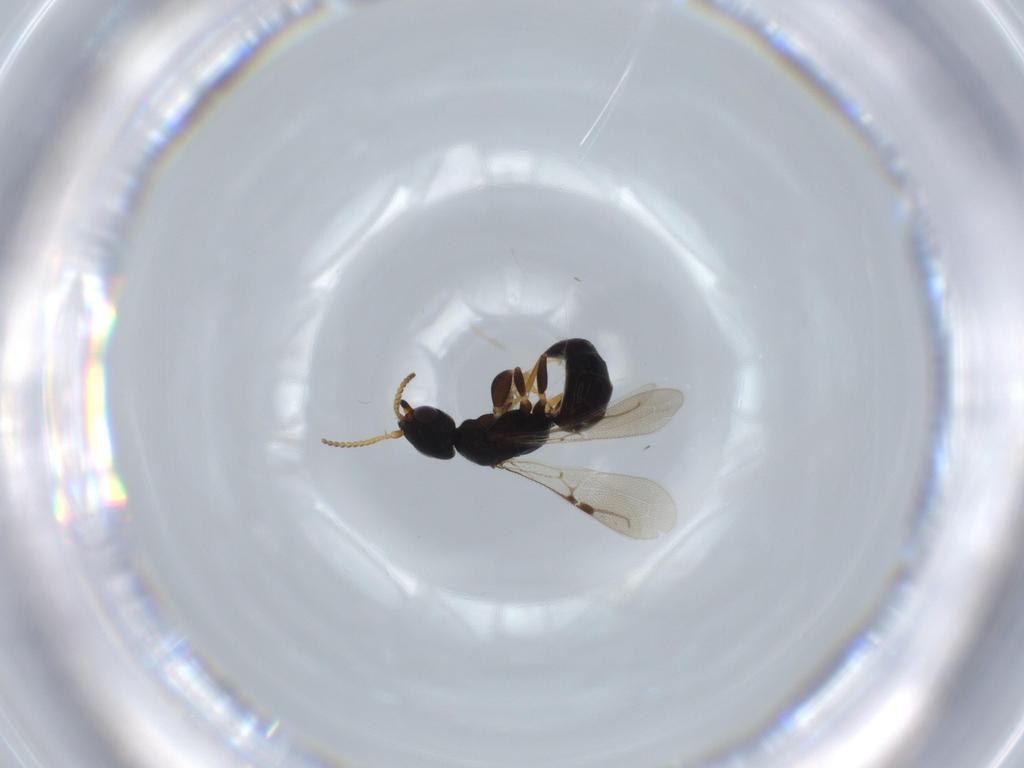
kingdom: Animalia
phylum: Arthropoda
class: Insecta
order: Hymenoptera
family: Bethylidae
